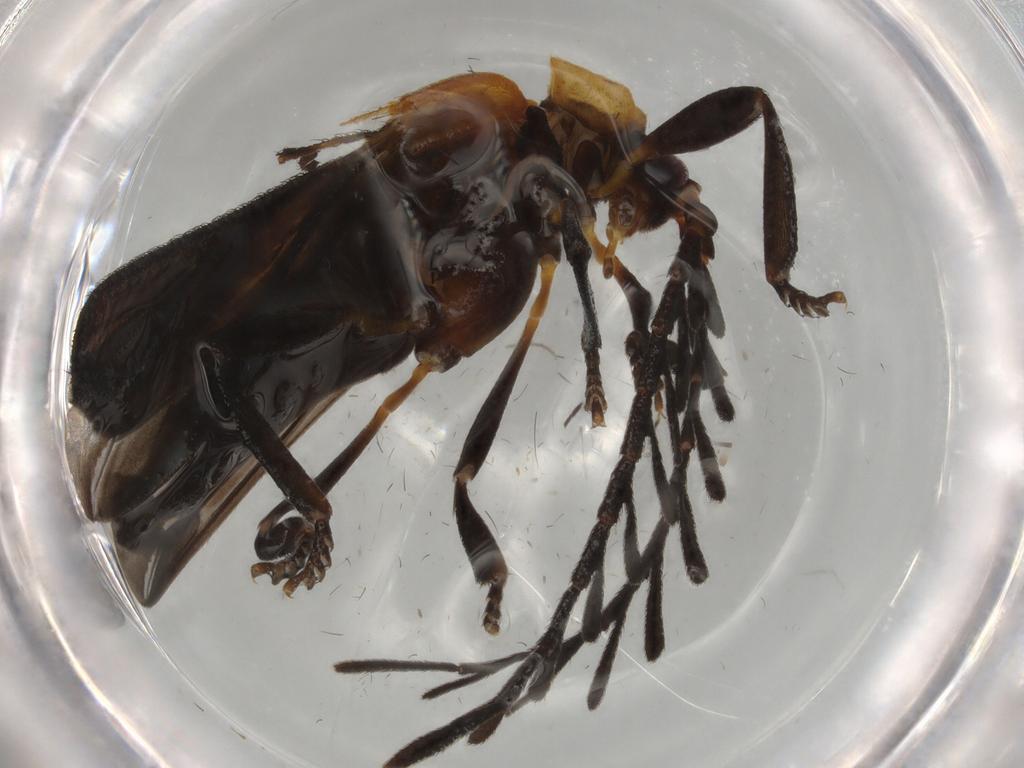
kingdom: Animalia
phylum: Arthropoda
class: Insecta
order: Coleoptera
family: Lycidae
